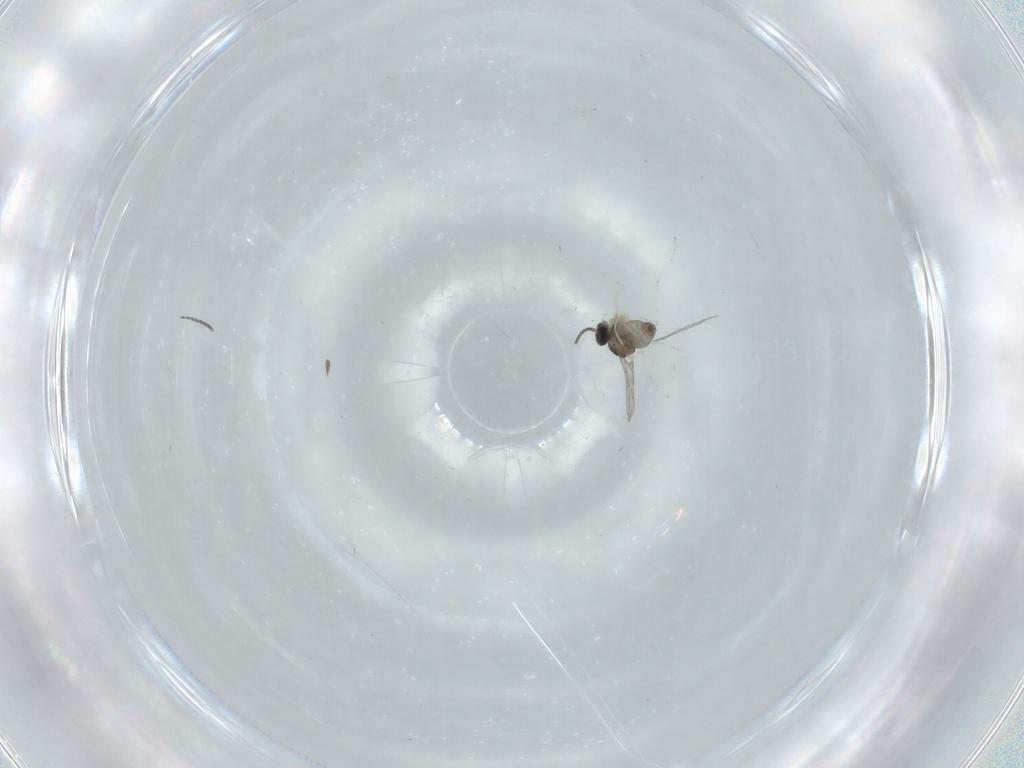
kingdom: Animalia
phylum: Arthropoda
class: Insecta
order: Diptera
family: Cecidomyiidae
